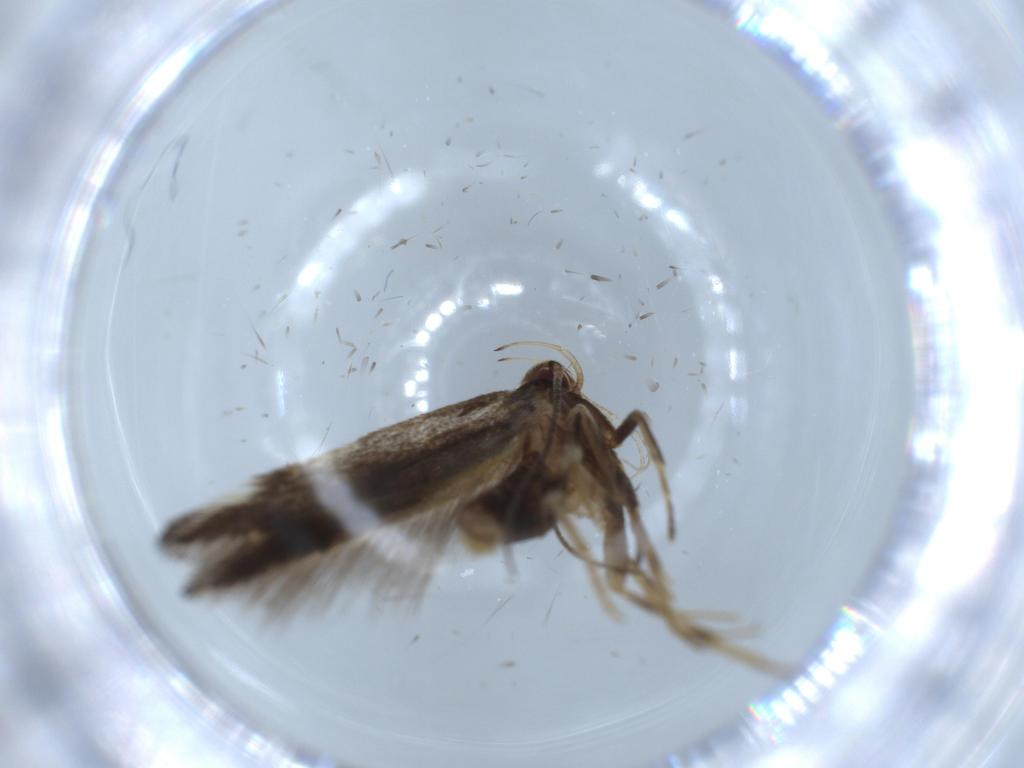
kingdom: Animalia
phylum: Arthropoda
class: Insecta
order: Lepidoptera
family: Cosmopterigidae
